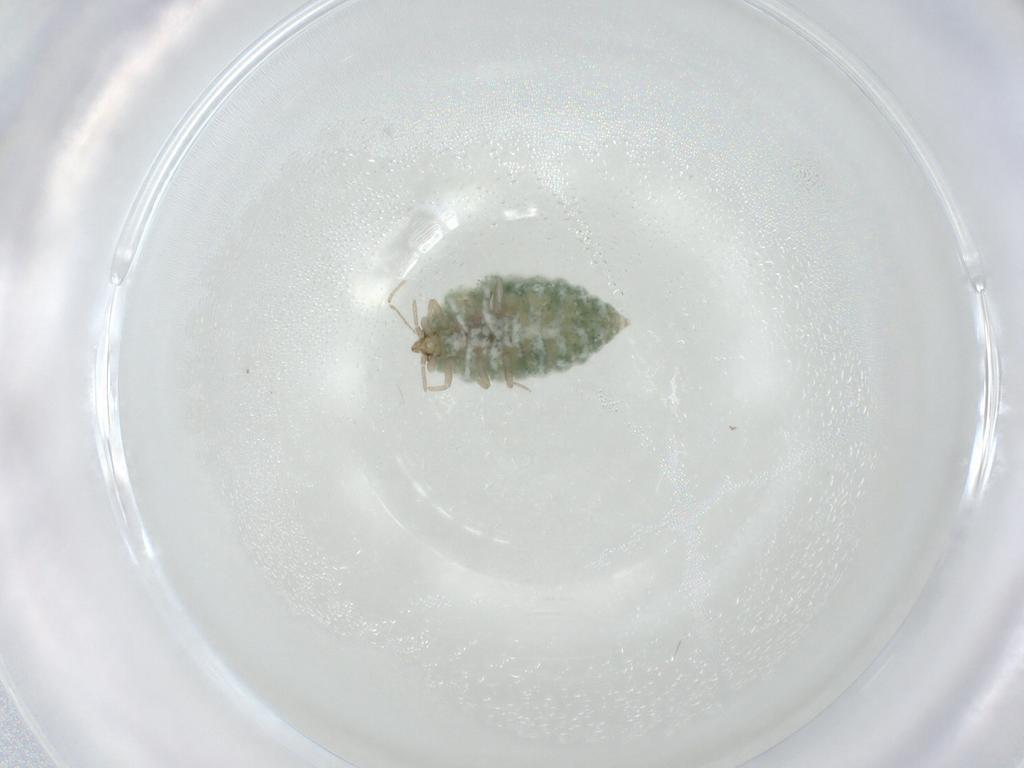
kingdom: Animalia
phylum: Arthropoda
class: Insecta
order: Neuroptera
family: Coniopterygidae
